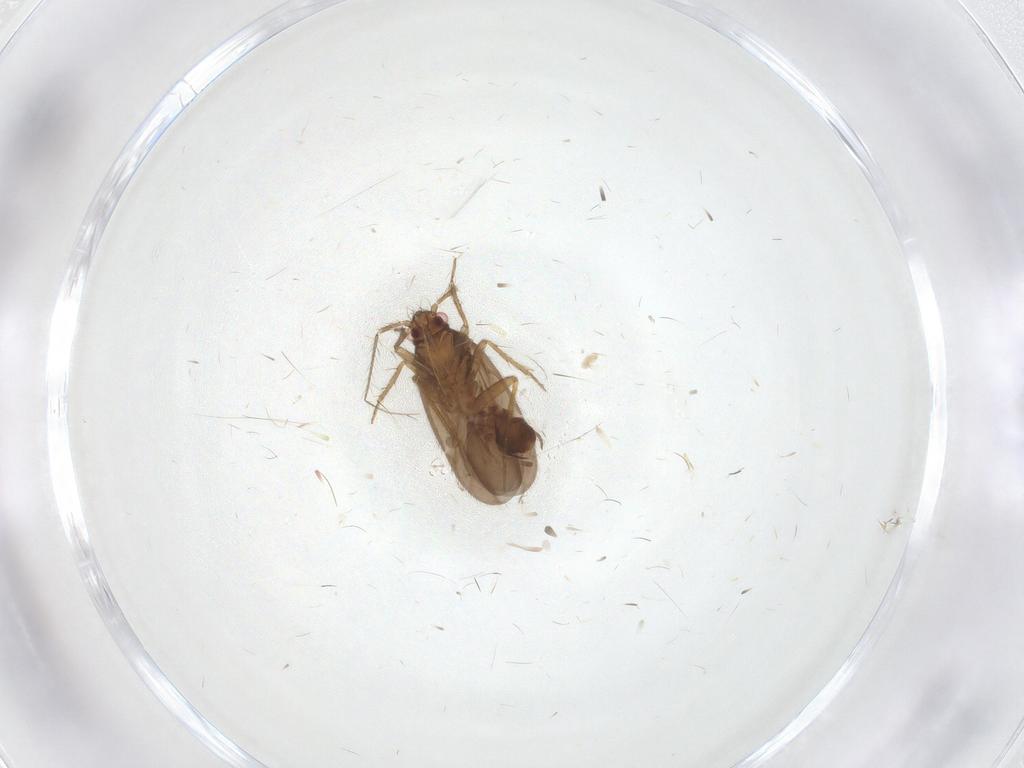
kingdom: Animalia
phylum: Arthropoda
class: Insecta
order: Hemiptera
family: Ceratocombidae
